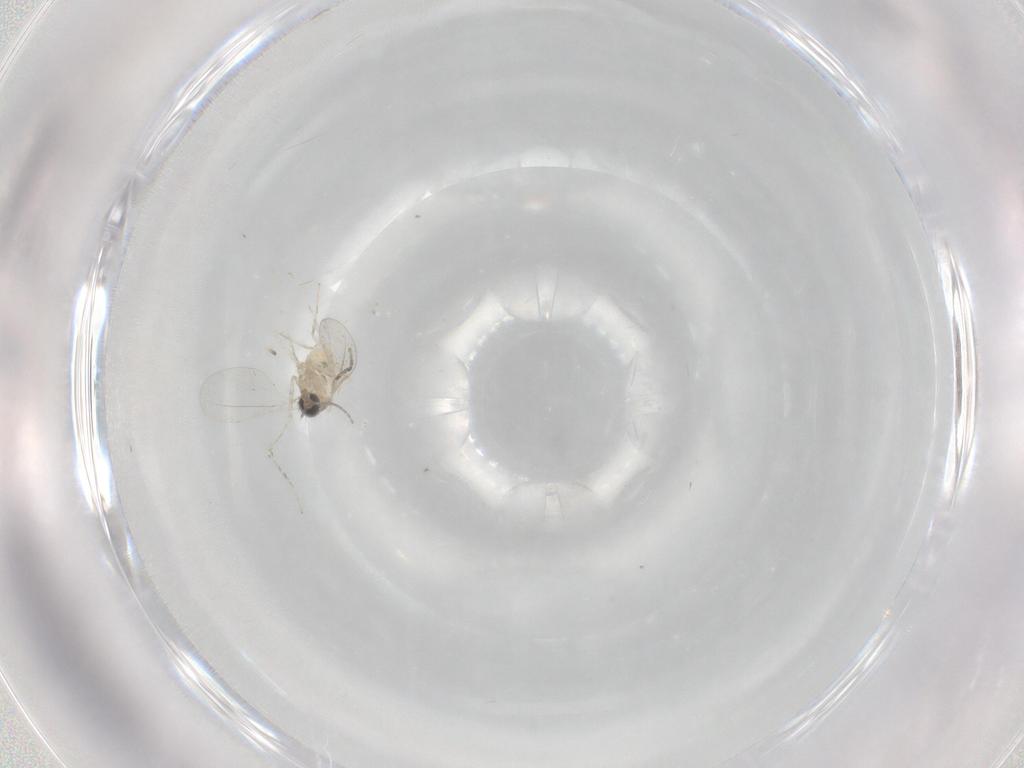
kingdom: Animalia
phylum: Arthropoda
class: Insecta
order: Diptera
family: Cecidomyiidae
